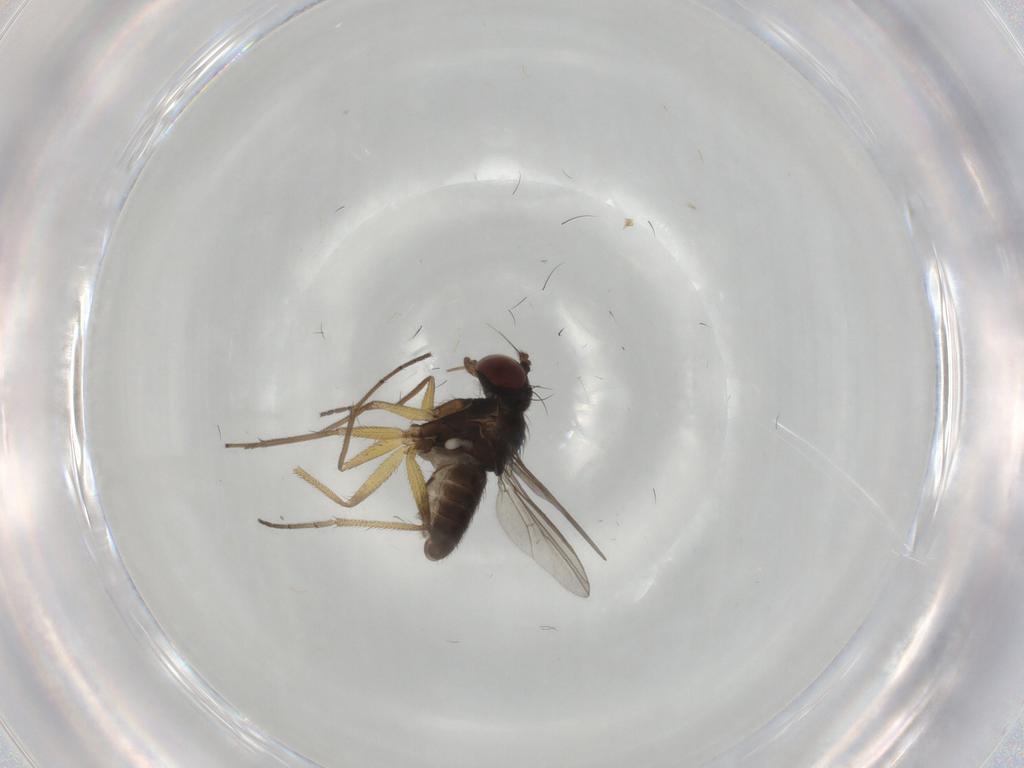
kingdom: Animalia
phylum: Arthropoda
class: Insecta
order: Diptera
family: Dolichopodidae
